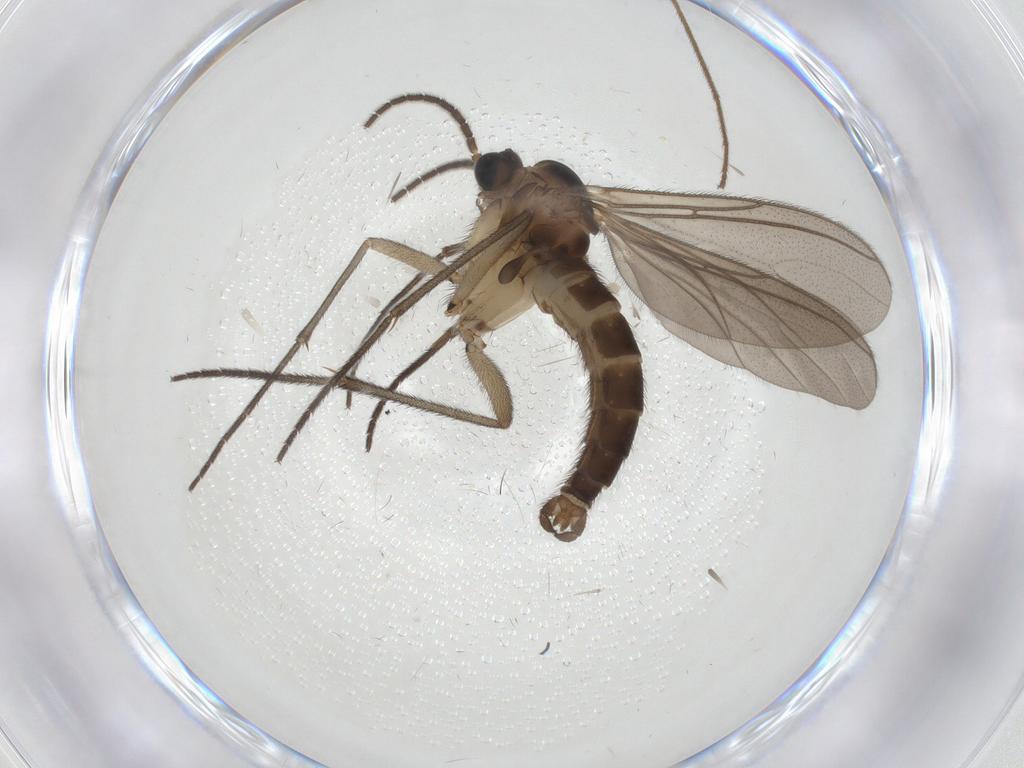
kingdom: Animalia
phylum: Arthropoda
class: Insecta
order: Diptera
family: Sciaridae
